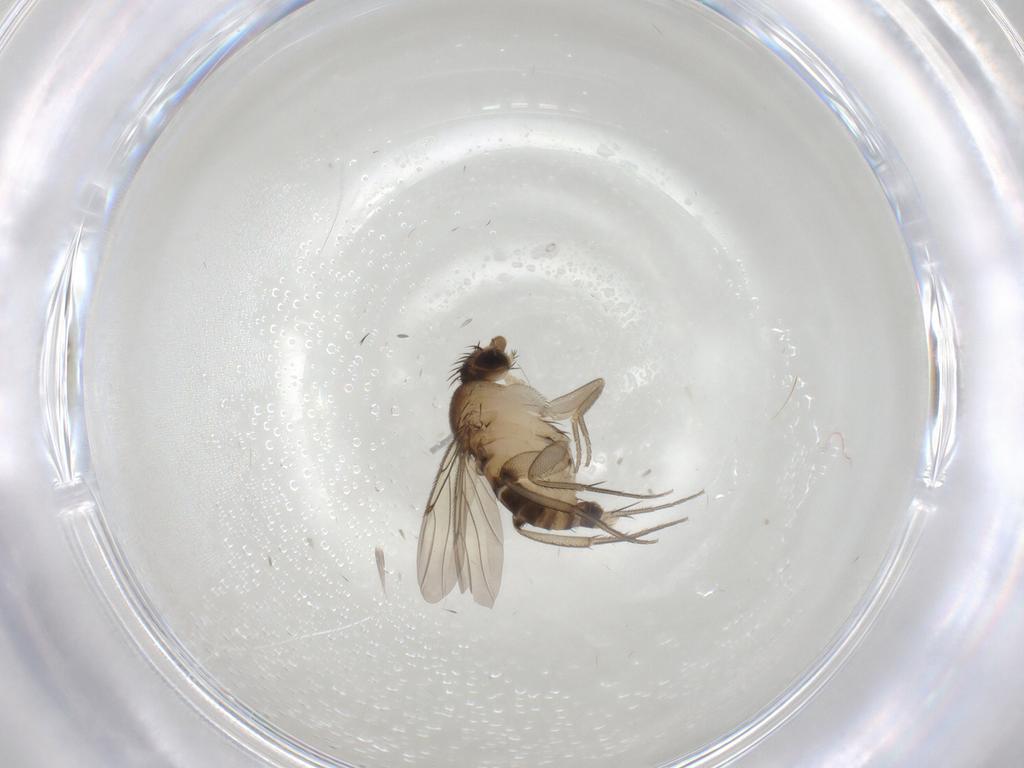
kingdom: Animalia
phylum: Arthropoda
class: Insecta
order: Diptera
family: Phoridae
